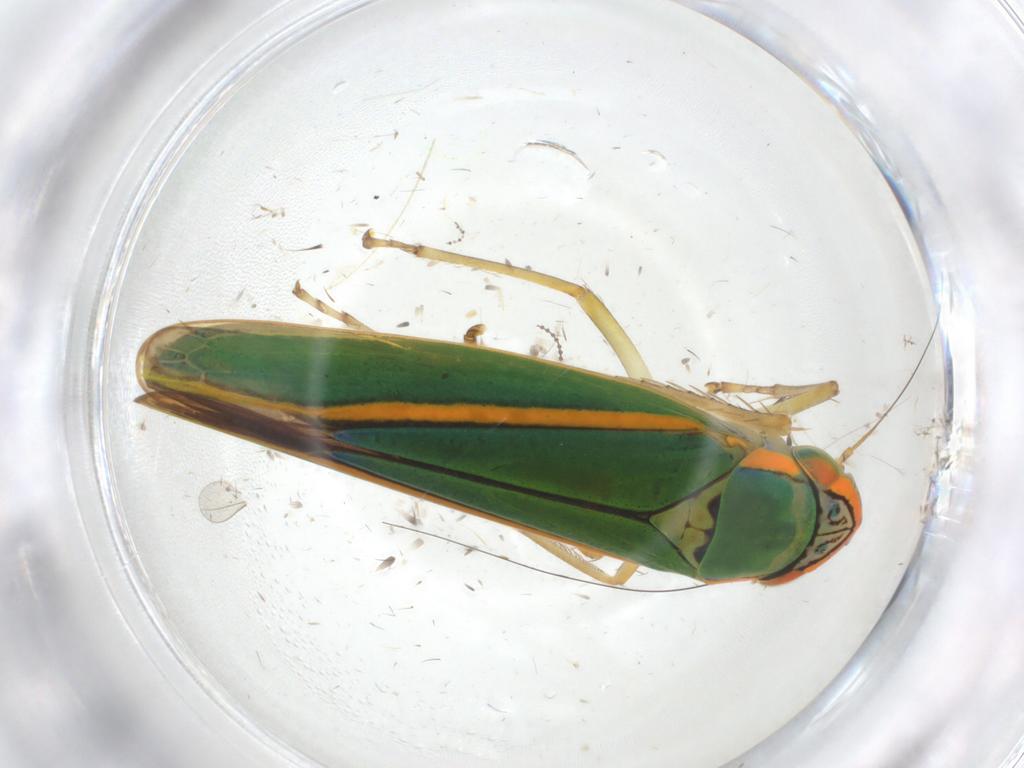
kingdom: Animalia
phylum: Arthropoda
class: Insecta
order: Hemiptera
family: Cicadellidae
